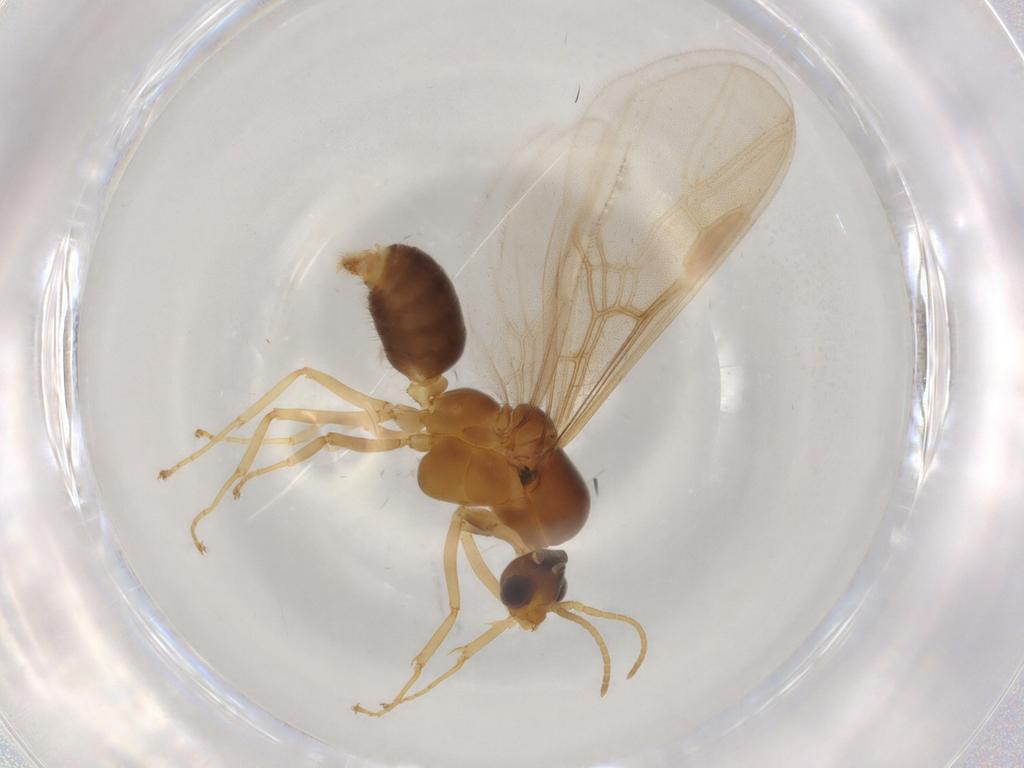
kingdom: Animalia
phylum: Arthropoda
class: Insecta
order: Hymenoptera
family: Formicidae
